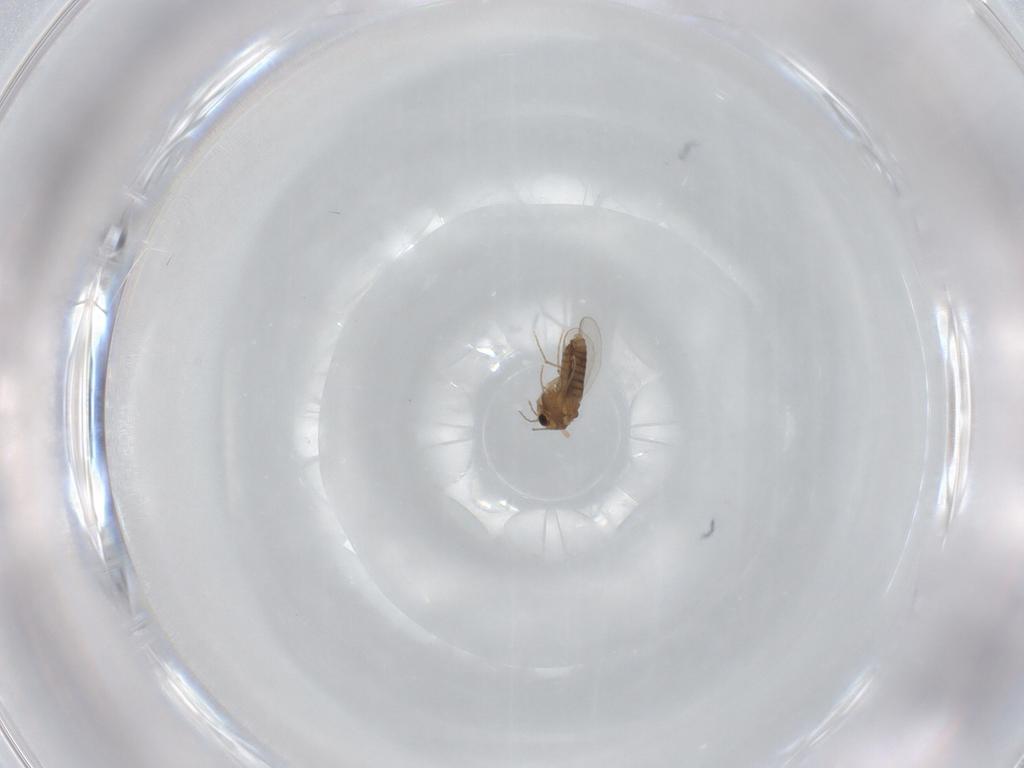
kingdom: Animalia
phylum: Arthropoda
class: Insecta
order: Diptera
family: Chironomidae
